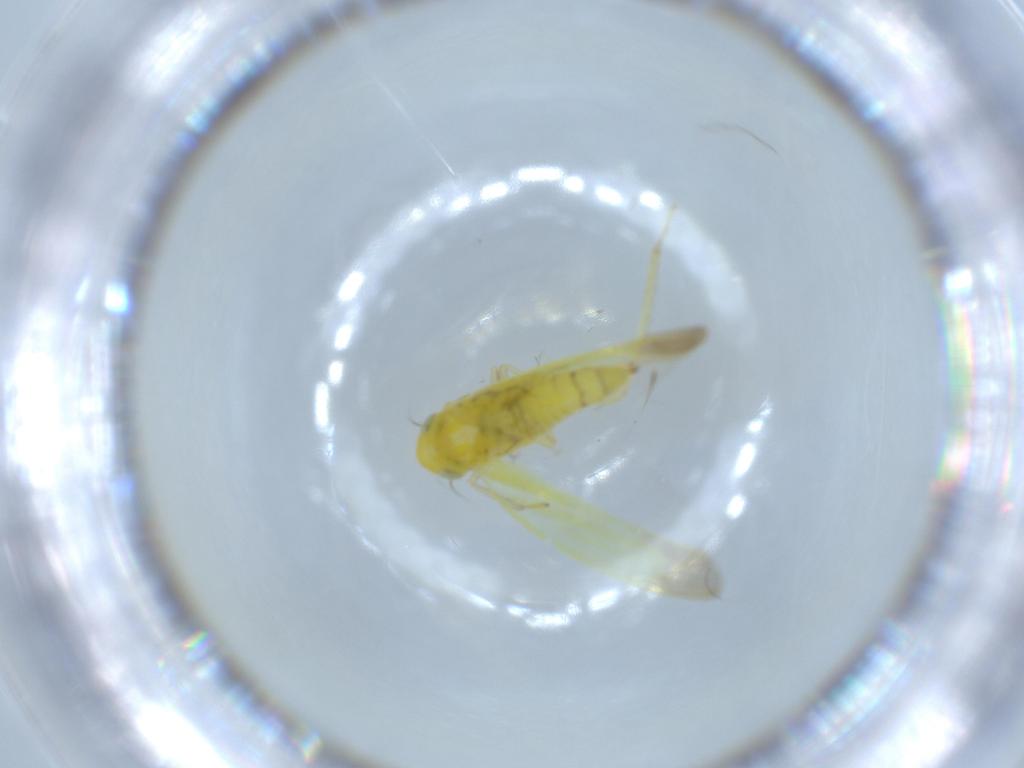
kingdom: Animalia
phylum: Arthropoda
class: Insecta
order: Hemiptera
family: Cicadellidae
